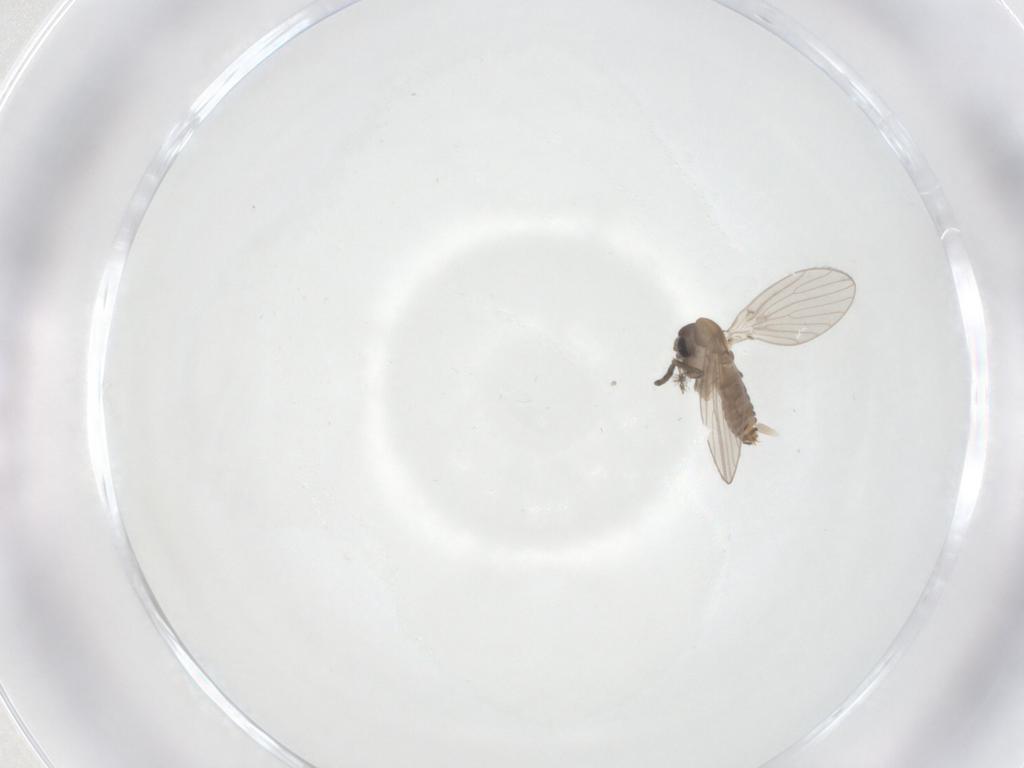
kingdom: Animalia
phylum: Arthropoda
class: Insecta
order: Diptera
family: Psychodidae
